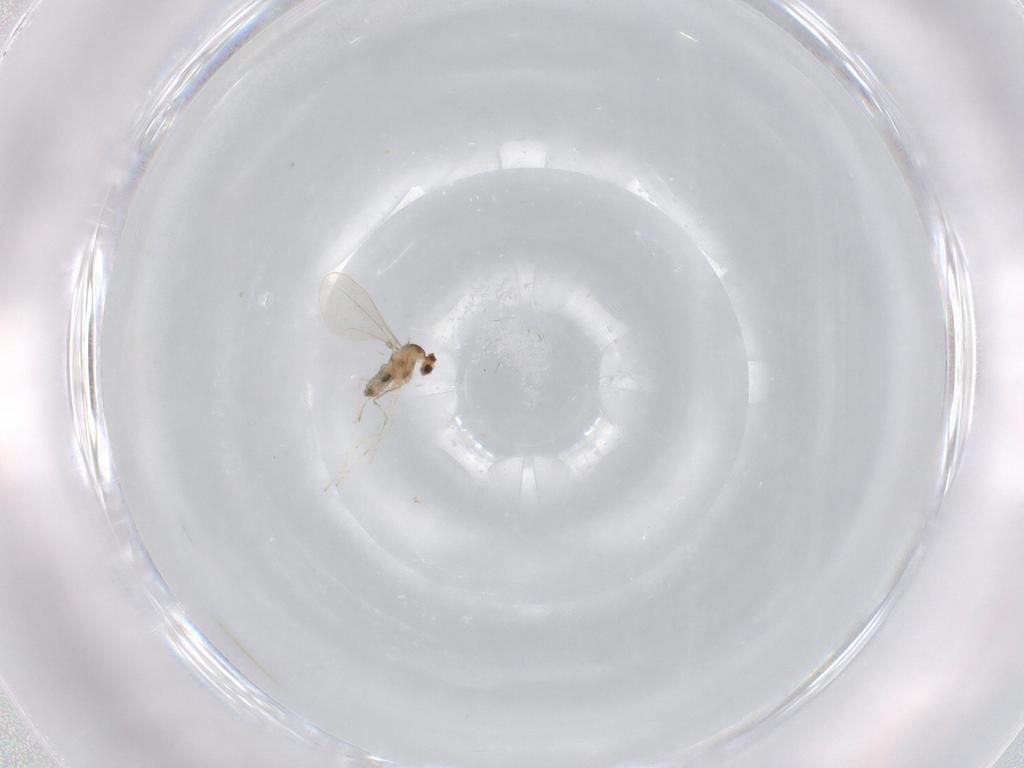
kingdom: Animalia
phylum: Arthropoda
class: Insecta
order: Diptera
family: Cecidomyiidae
